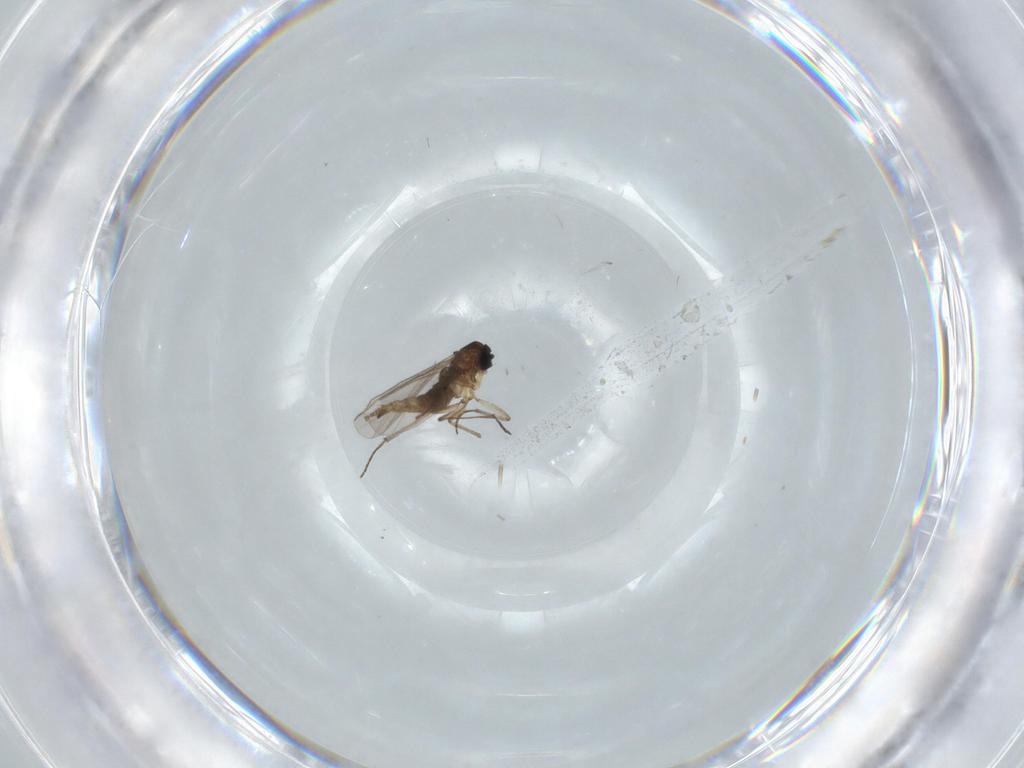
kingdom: Animalia
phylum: Arthropoda
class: Insecta
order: Diptera
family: Sciaridae
